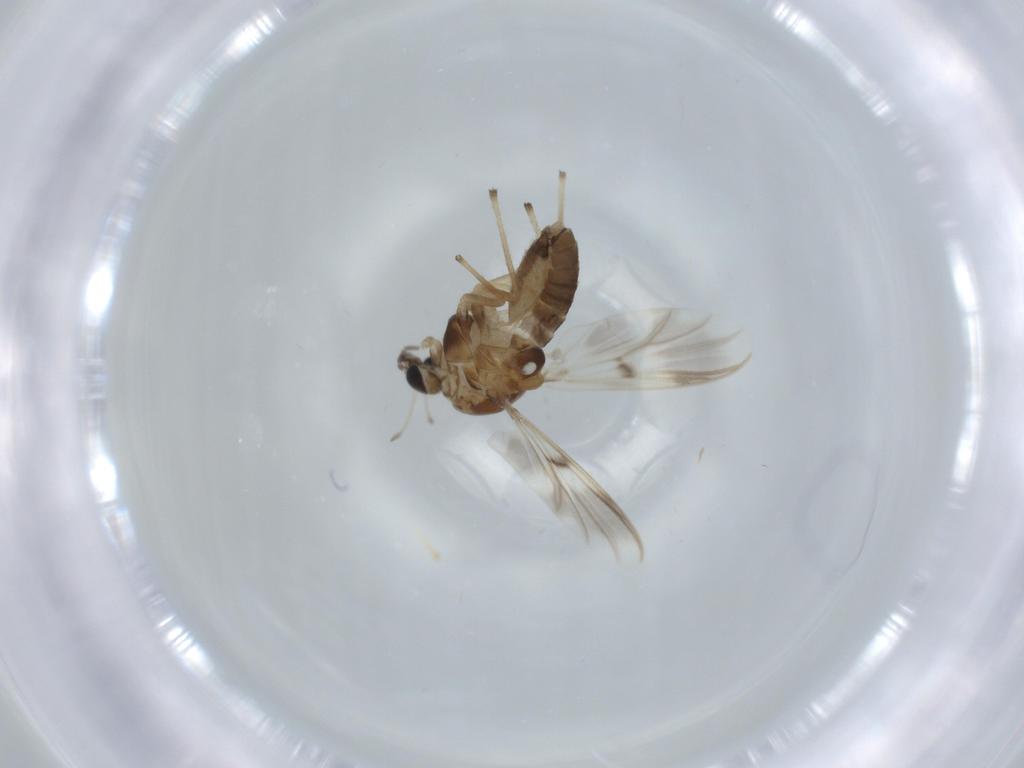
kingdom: Animalia
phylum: Arthropoda
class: Insecta
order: Diptera
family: Chironomidae
